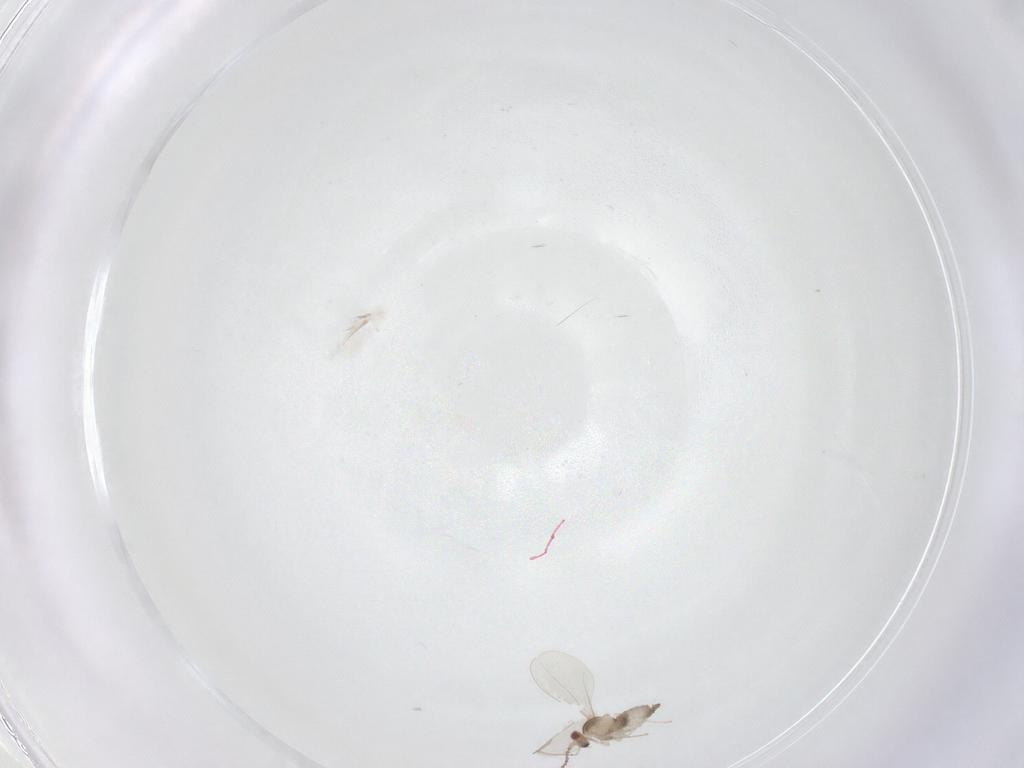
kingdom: Animalia
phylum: Arthropoda
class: Insecta
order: Diptera
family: Cecidomyiidae
